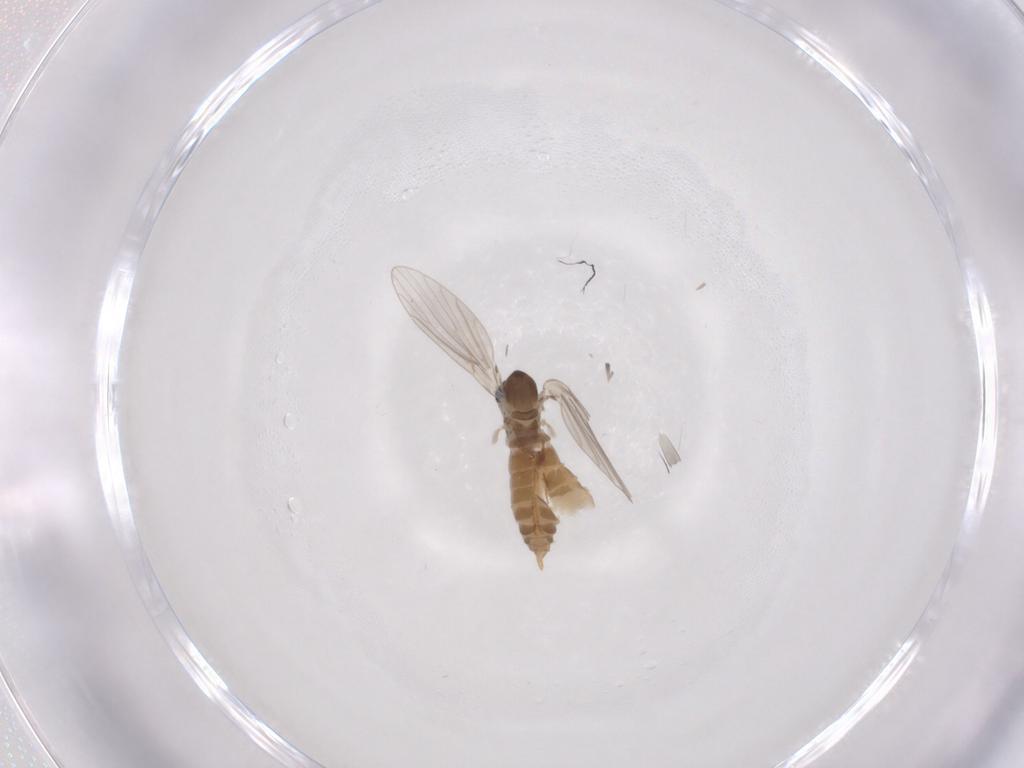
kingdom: Animalia
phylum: Arthropoda
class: Insecta
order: Diptera
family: Psychodidae
